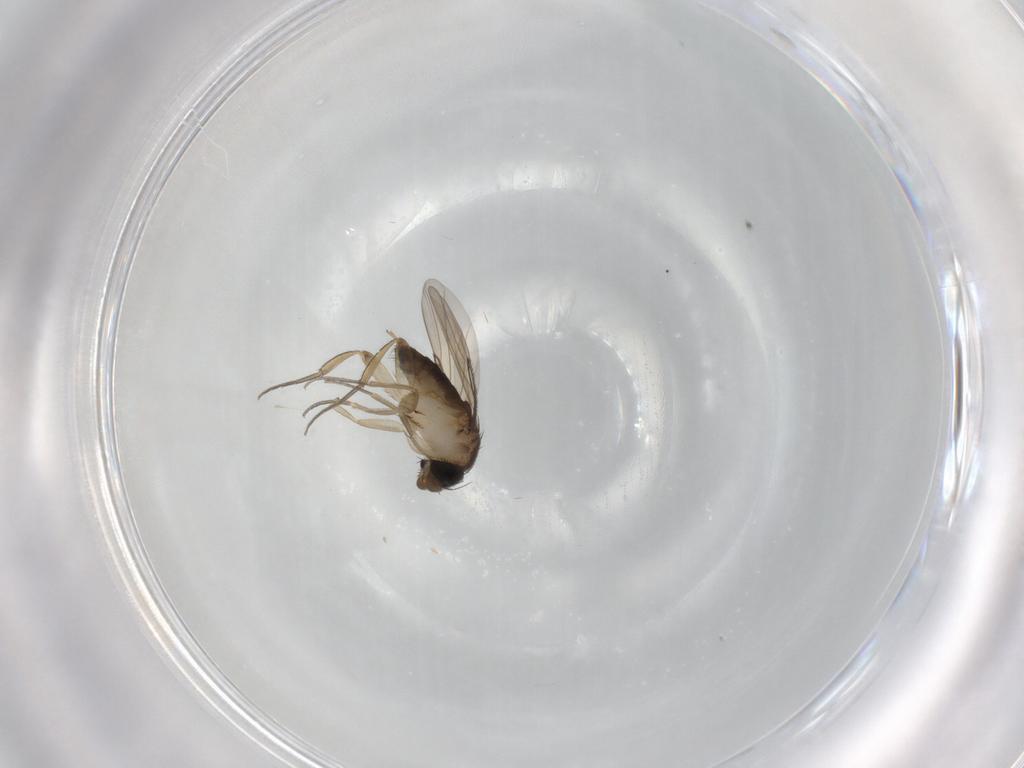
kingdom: Animalia
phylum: Arthropoda
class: Insecta
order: Diptera
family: Phoridae
